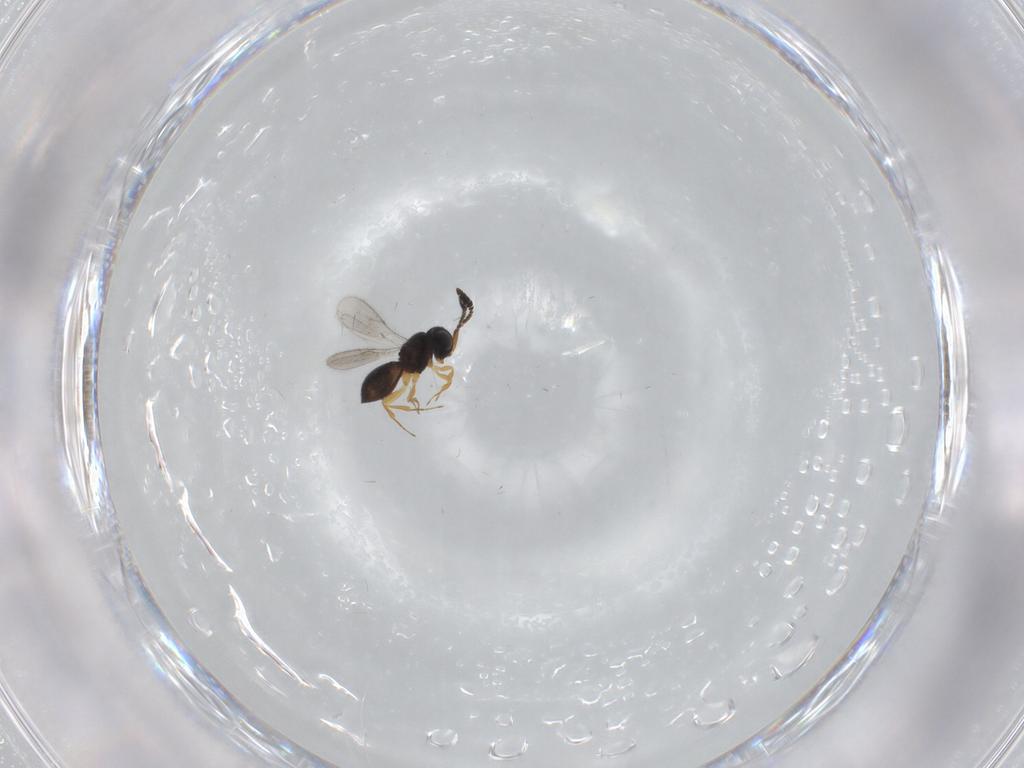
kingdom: Animalia
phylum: Arthropoda
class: Insecta
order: Hymenoptera
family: Scelionidae
